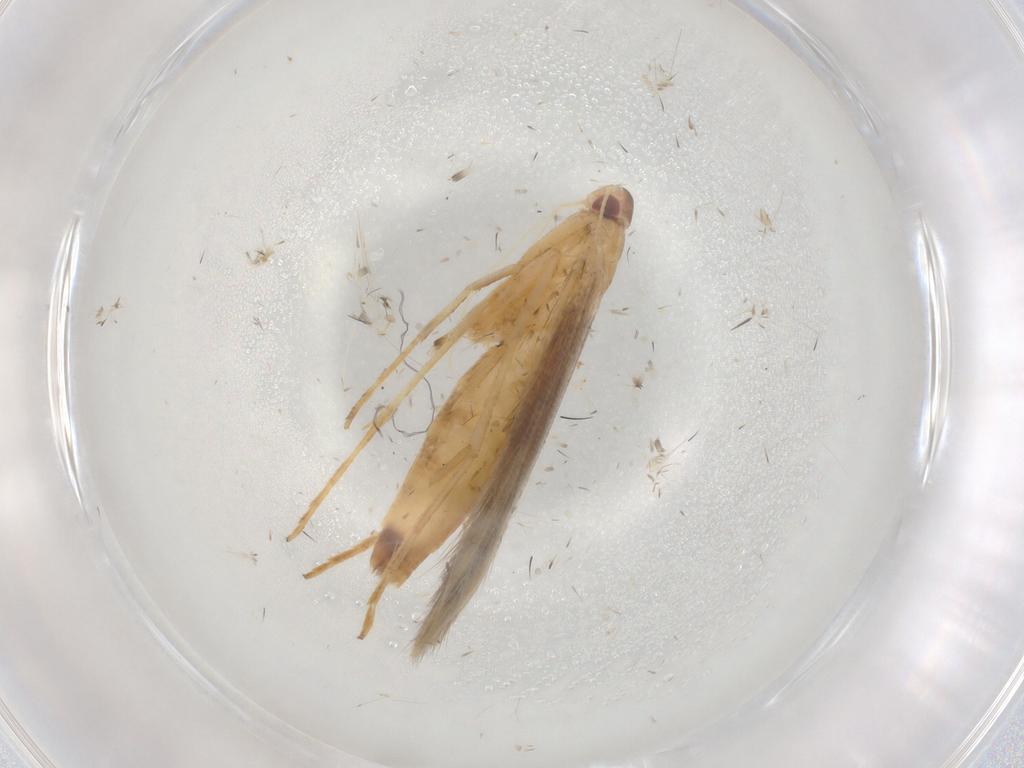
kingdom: Animalia
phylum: Arthropoda
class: Insecta
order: Lepidoptera
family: Cosmopterigidae
